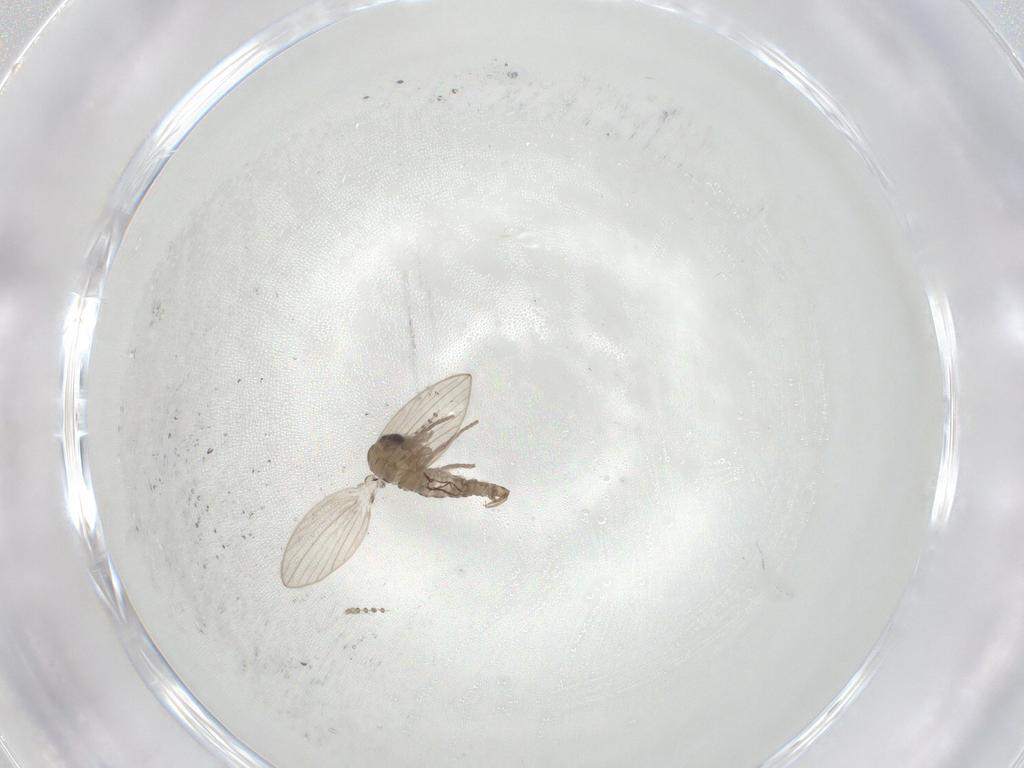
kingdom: Animalia
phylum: Arthropoda
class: Insecta
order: Diptera
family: Psychodidae
